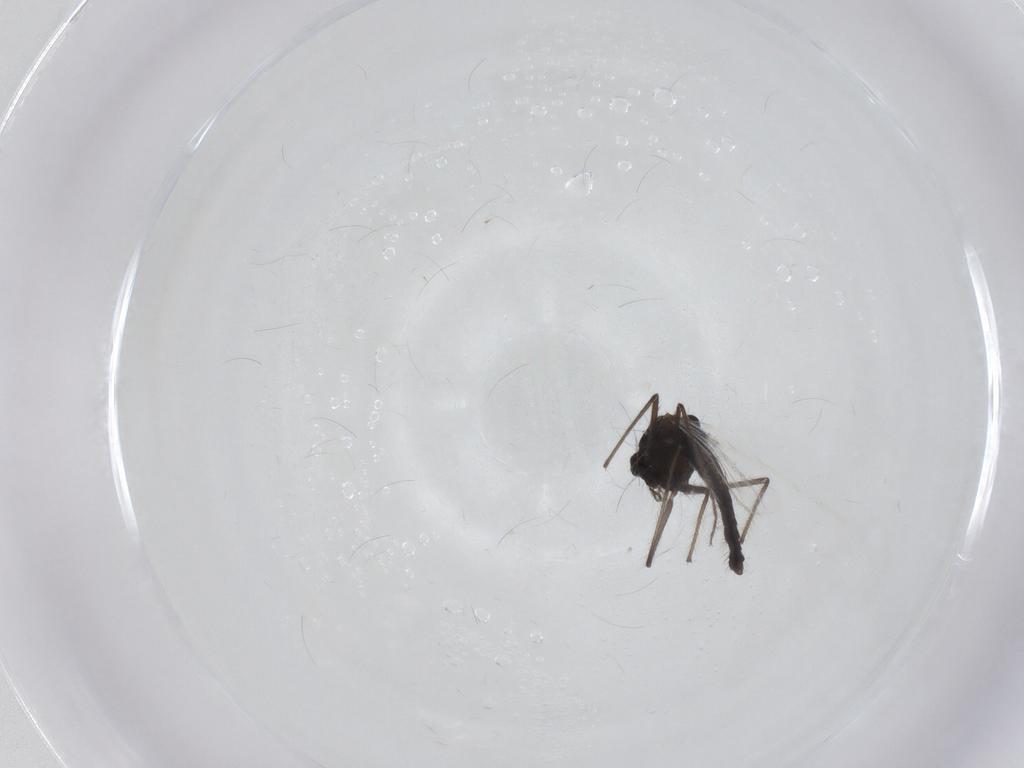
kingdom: Animalia
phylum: Arthropoda
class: Insecta
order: Diptera
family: Chironomidae
